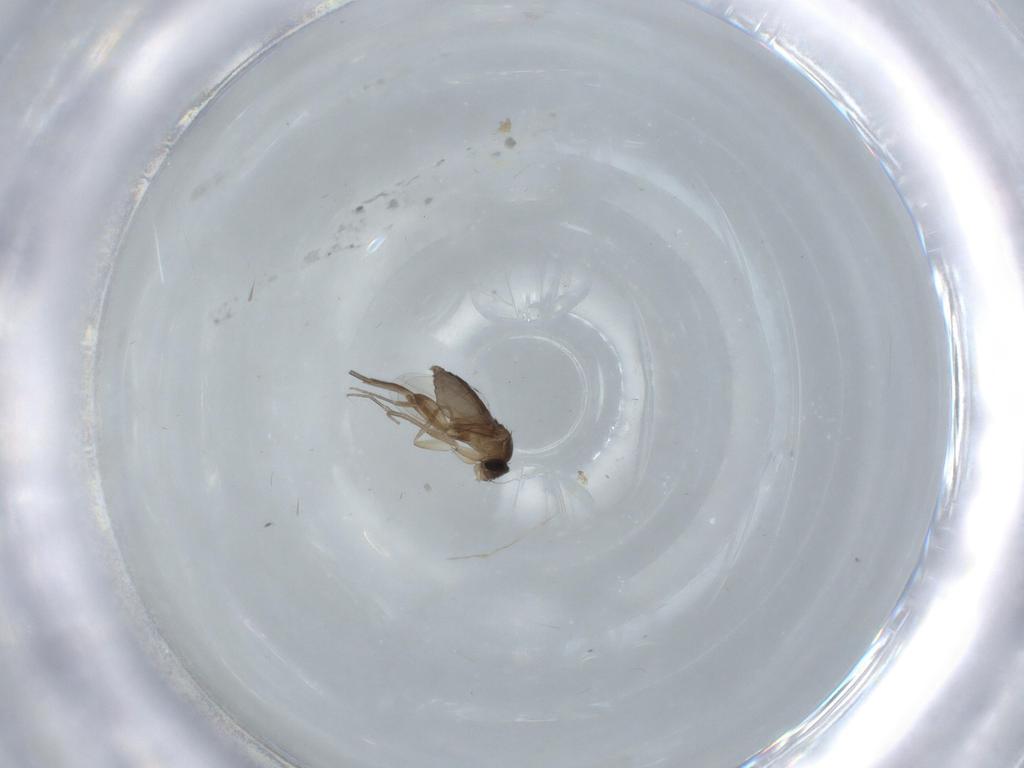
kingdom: Animalia
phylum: Arthropoda
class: Insecta
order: Diptera
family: Phoridae
